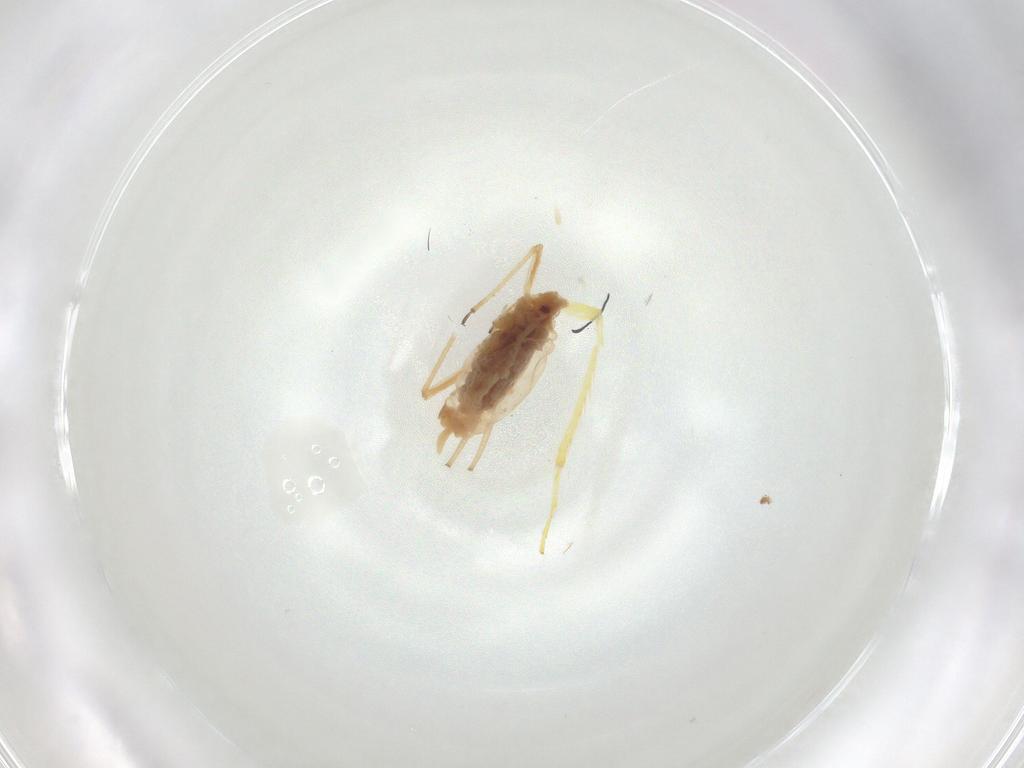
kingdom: Animalia
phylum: Arthropoda
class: Insecta
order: Hemiptera
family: Aphididae
